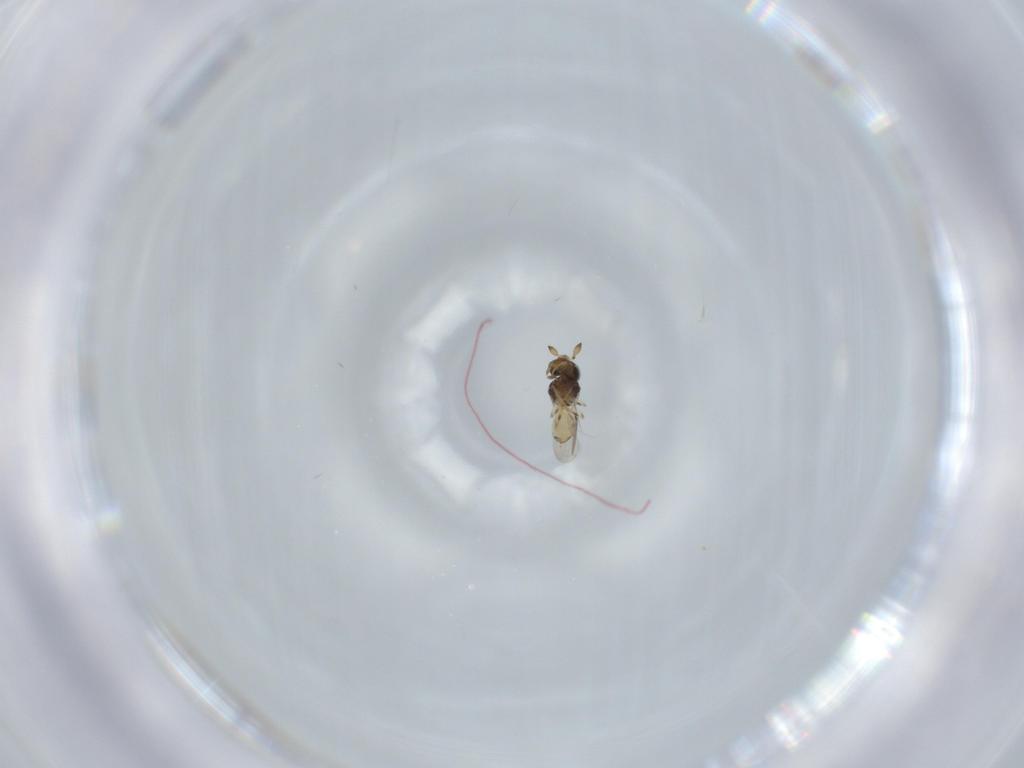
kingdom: Animalia
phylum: Arthropoda
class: Insecta
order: Hymenoptera
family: Scelionidae
